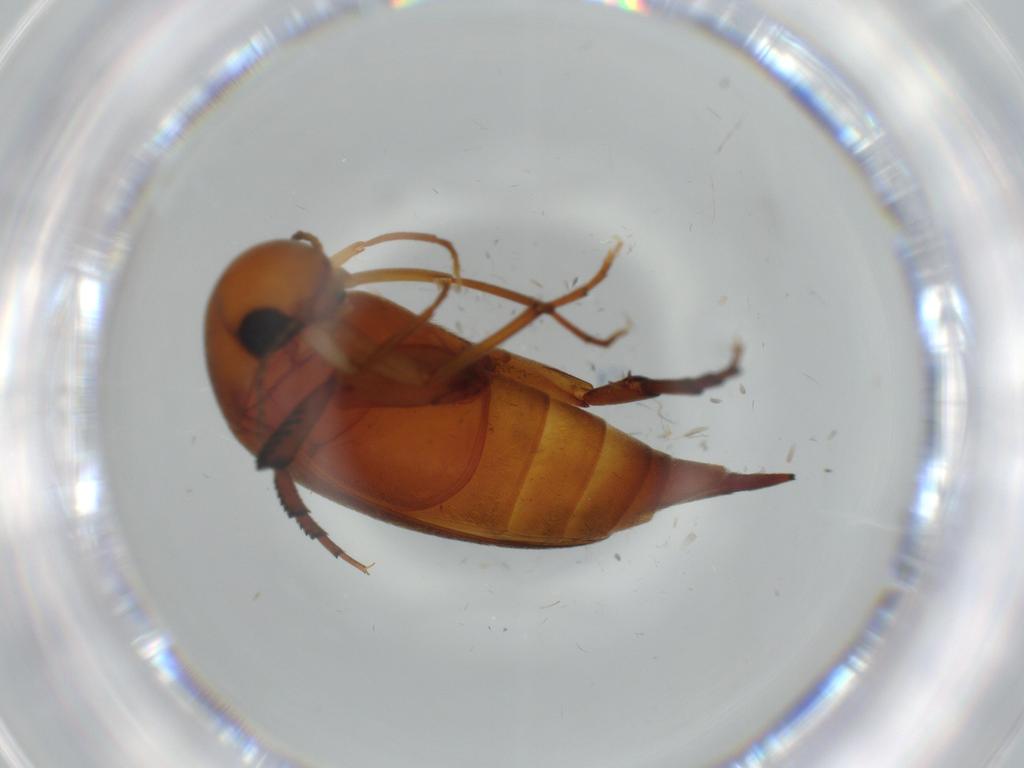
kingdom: Animalia
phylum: Arthropoda
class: Insecta
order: Coleoptera
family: Mordellidae
